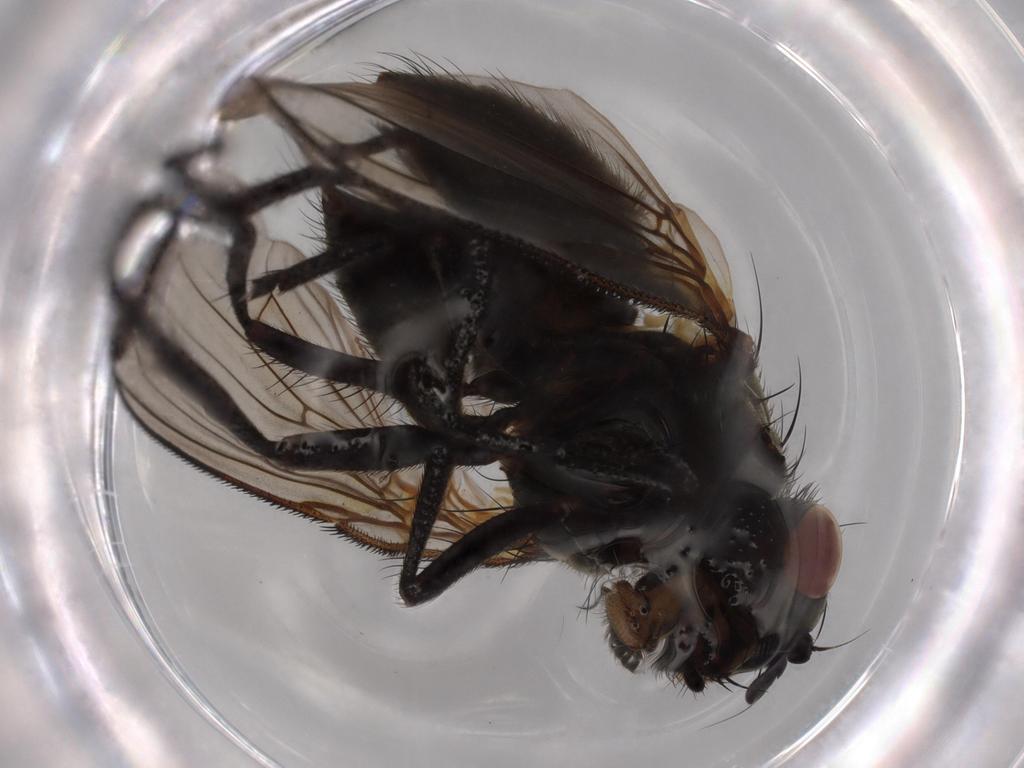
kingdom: Animalia
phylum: Arthropoda
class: Insecta
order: Diptera
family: Muscidae
